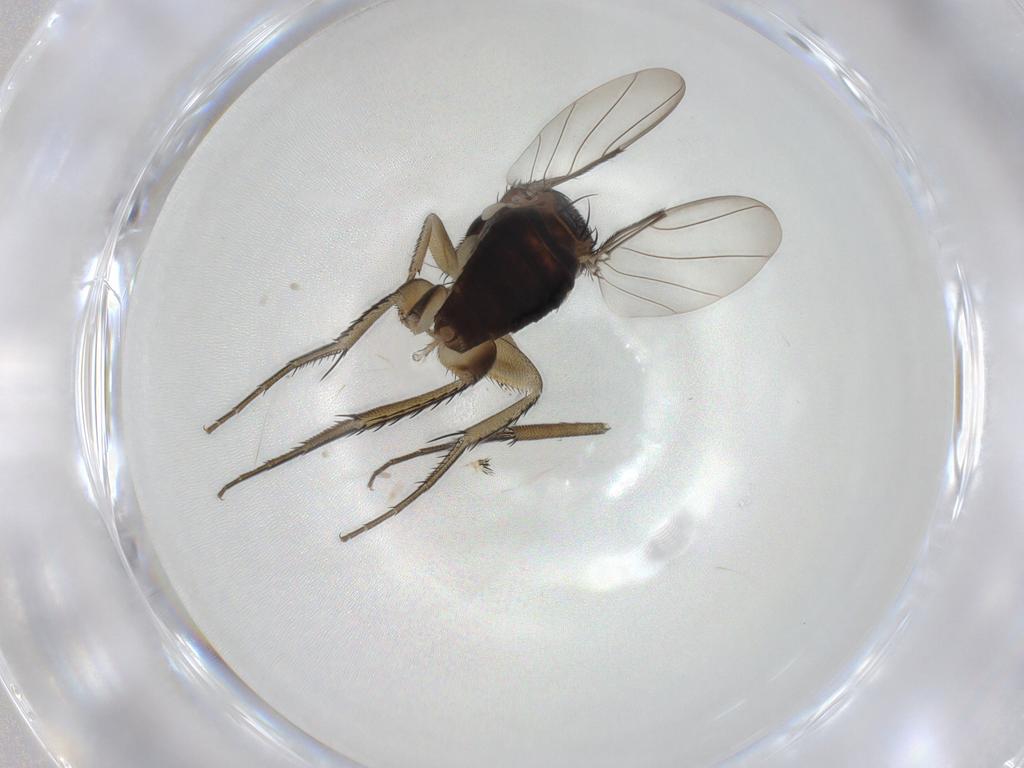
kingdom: Animalia
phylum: Arthropoda
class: Insecta
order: Diptera
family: Phoridae
